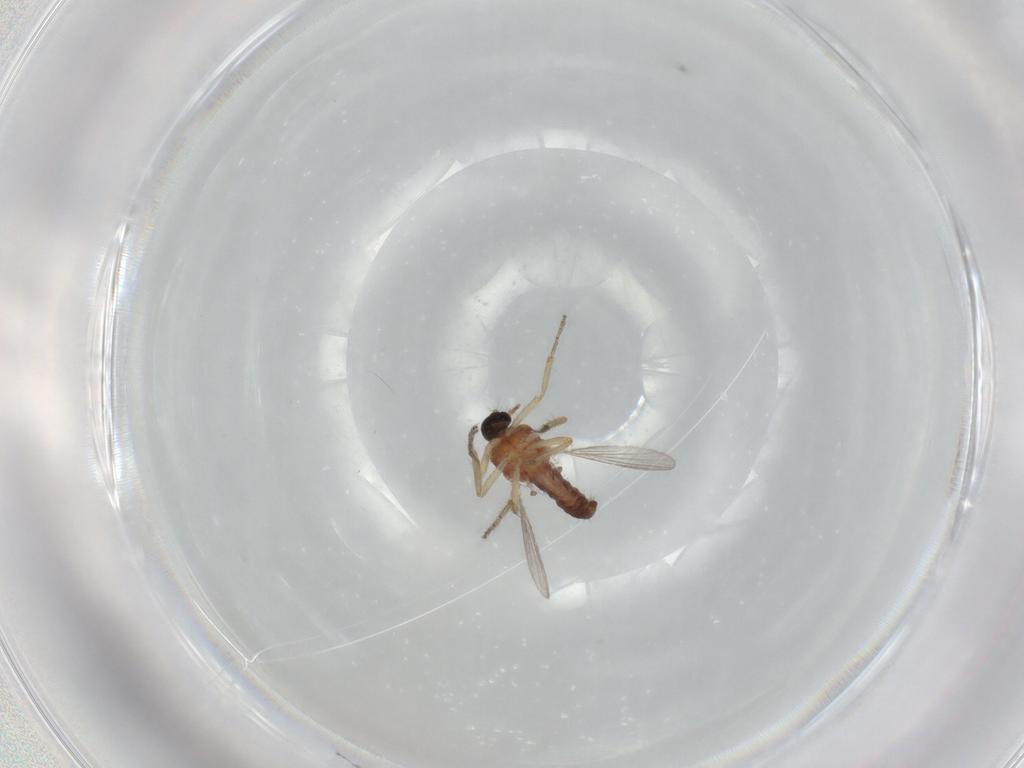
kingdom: Animalia
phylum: Arthropoda
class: Insecta
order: Diptera
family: Ceratopogonidae
